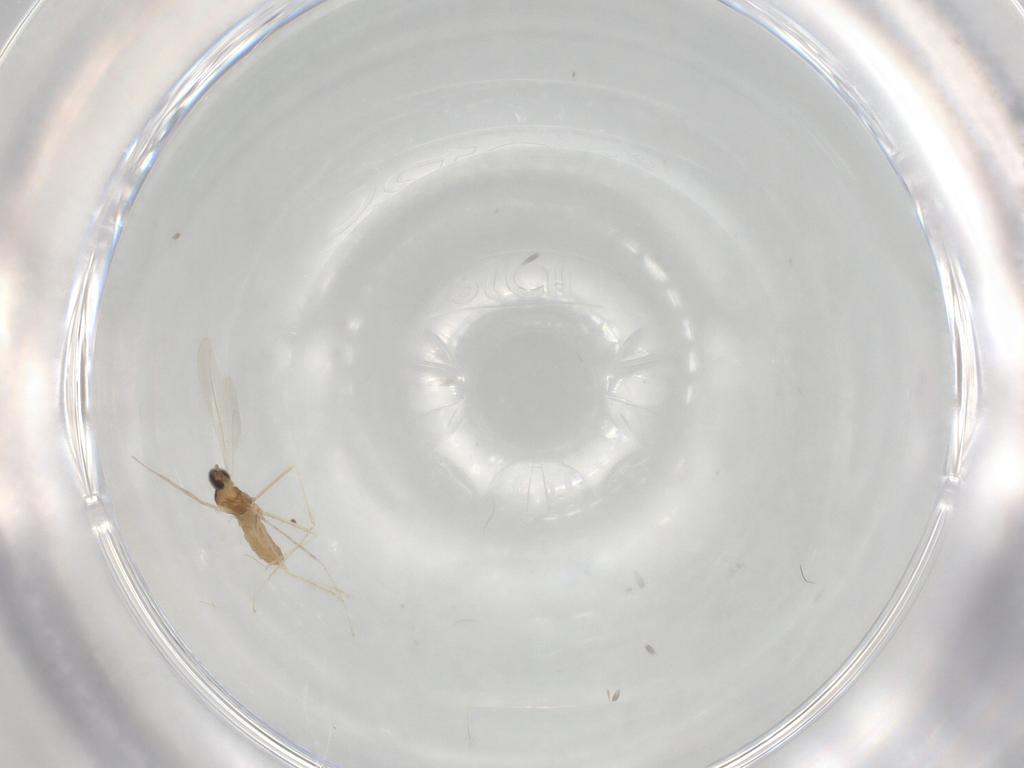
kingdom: Animalia
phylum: Arthropoda
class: Insecta
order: Diptera
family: Cecidomyiidae
